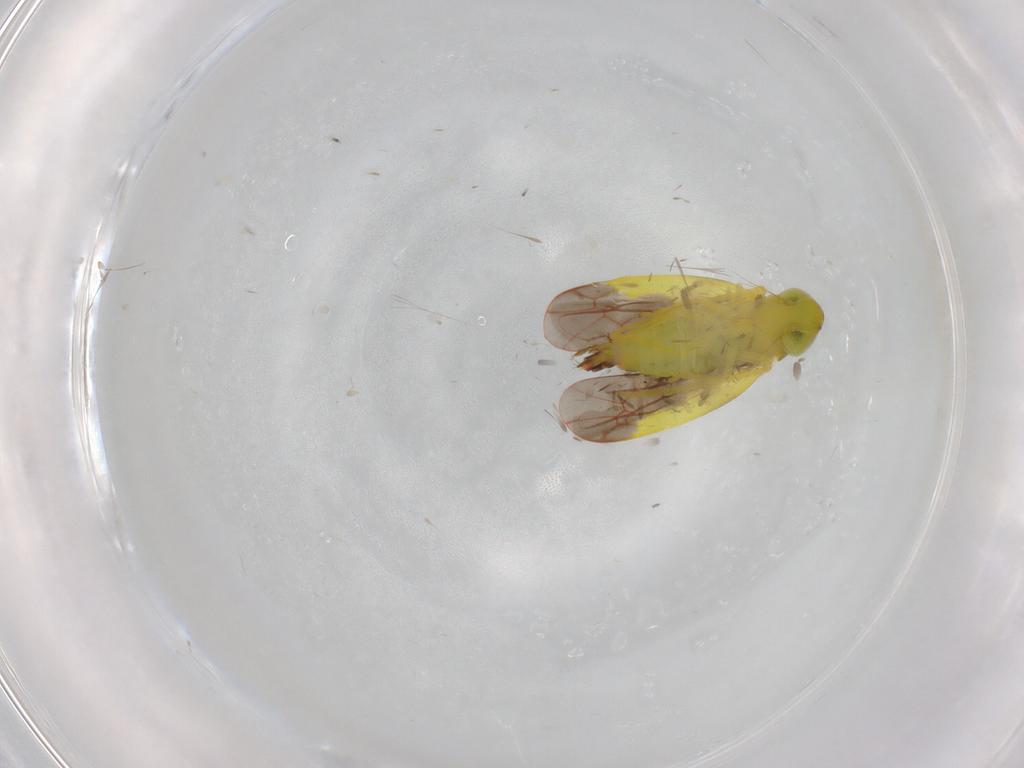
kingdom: Animalia
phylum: Arthropoda
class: Insecta
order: Hemiptera
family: Cicadellidae
